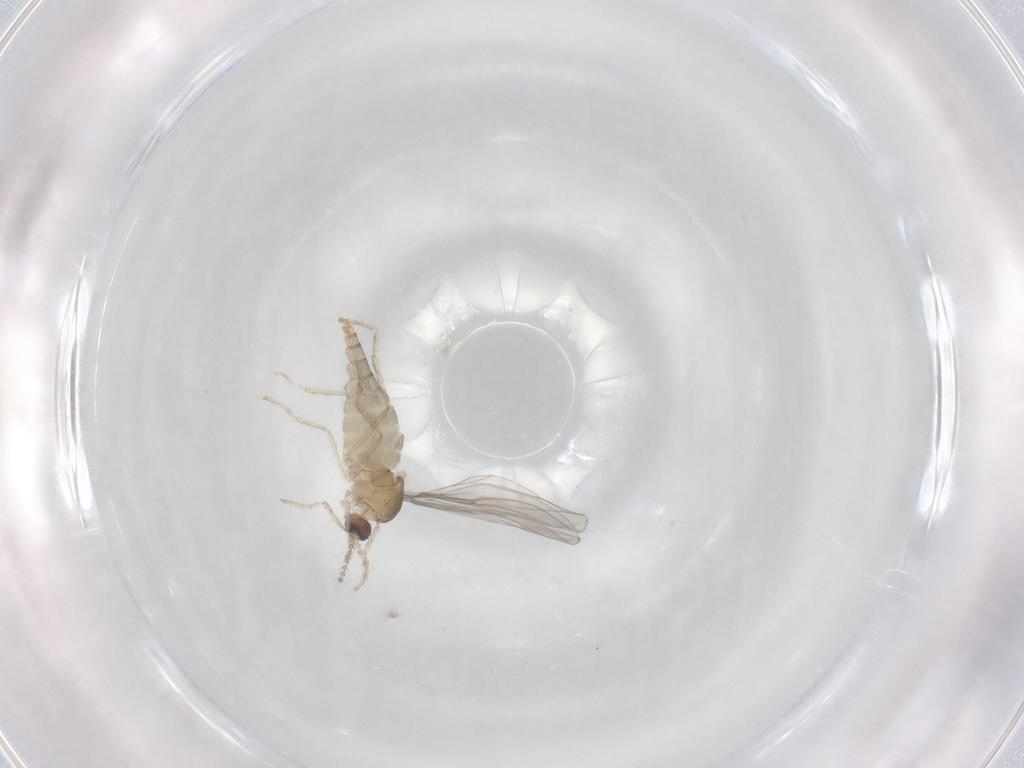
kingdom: Animalia
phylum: Arthropoda
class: Insecta
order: Diptera
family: Cecidomyiidae
